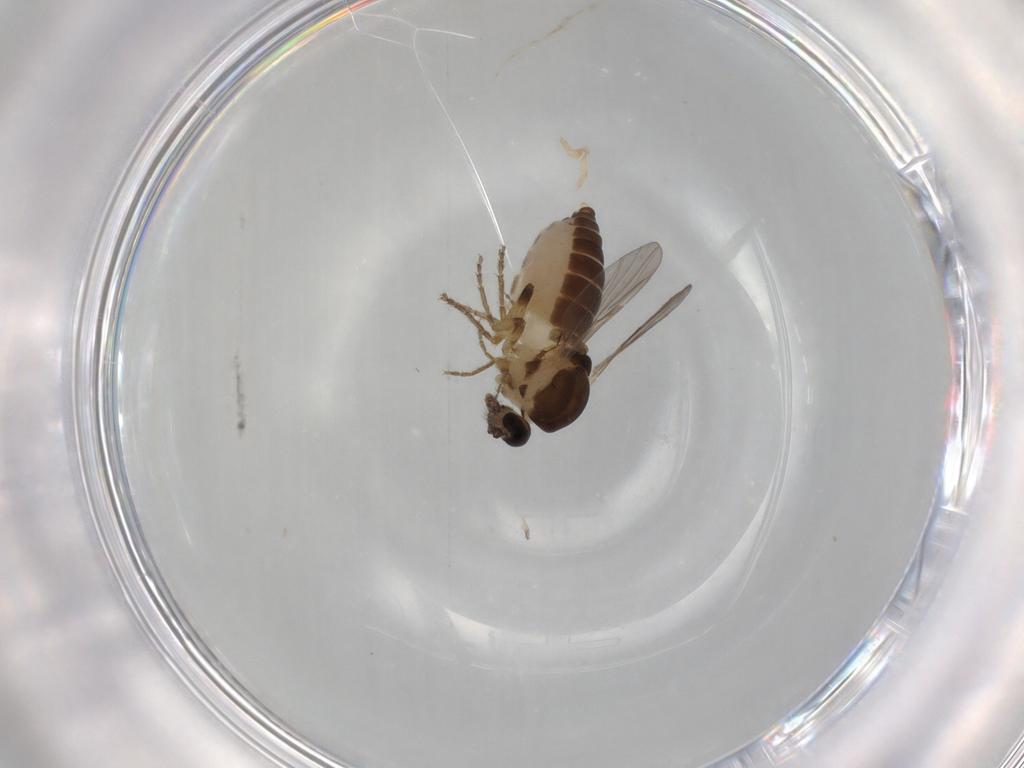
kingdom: Animalia
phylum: Arthropoda
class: Insecta
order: Diptera
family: Ceratopogonidae
